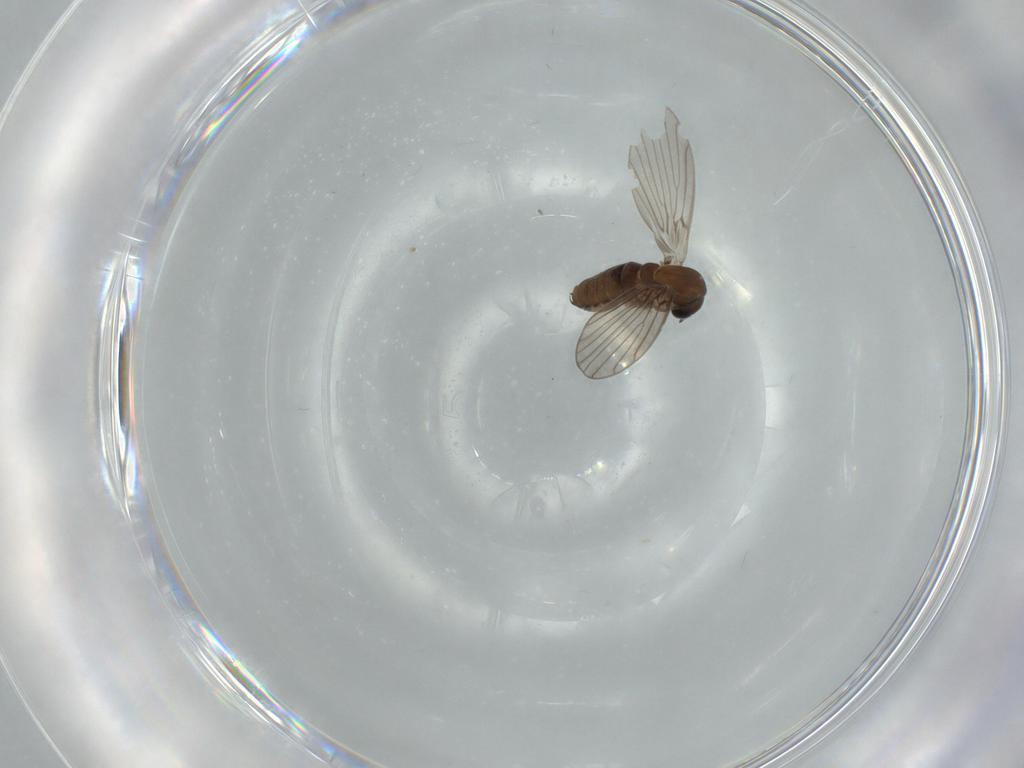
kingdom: Animalia
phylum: Arthropoda
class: Insecta
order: Diptera
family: Psychodidae
